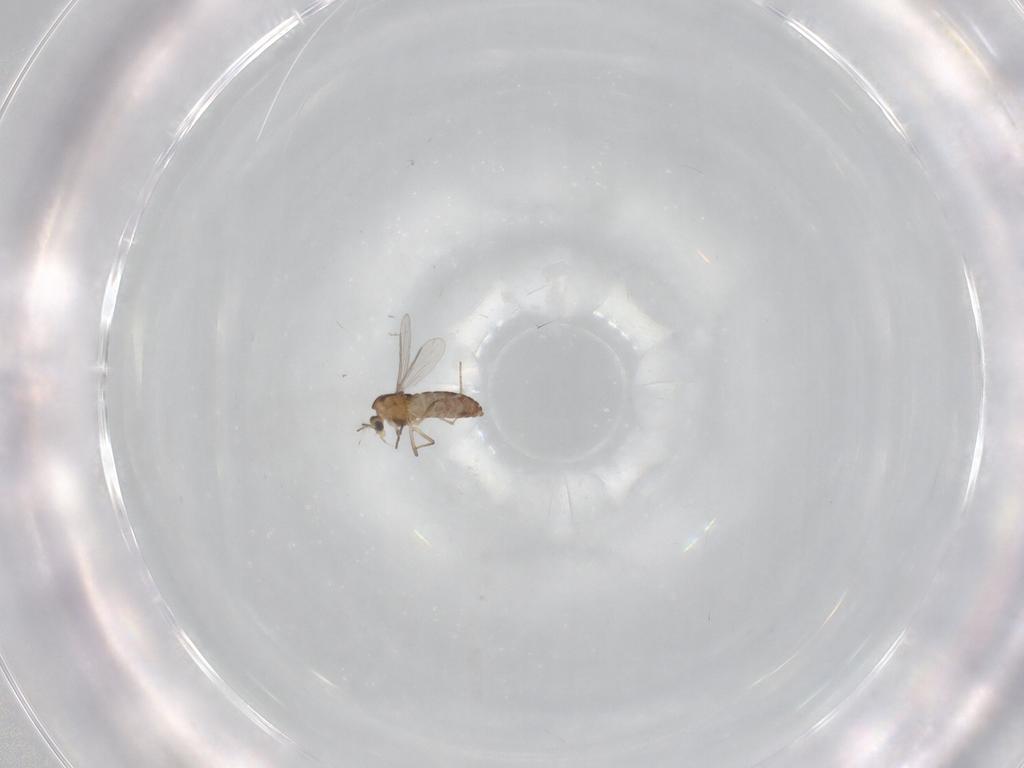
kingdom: Animalia
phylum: Arthropoda
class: Insecta
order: Diptera
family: Chironomidae
